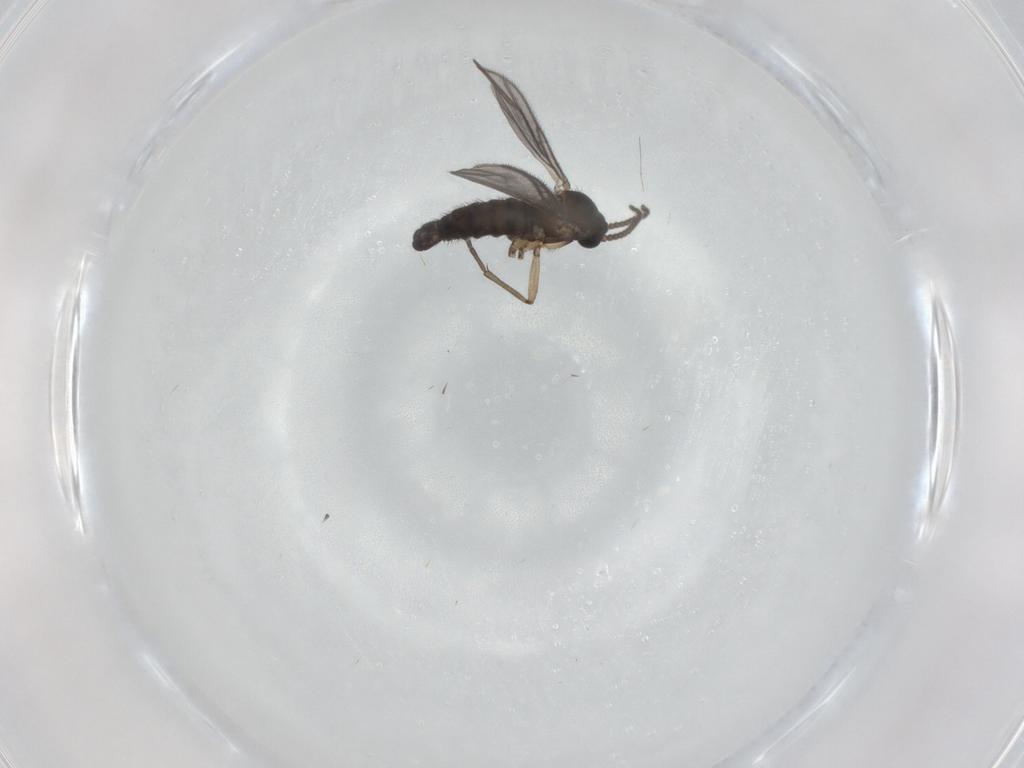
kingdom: Animalia
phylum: Arthropoda
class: Insecta
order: Diptera
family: Sciaridae
